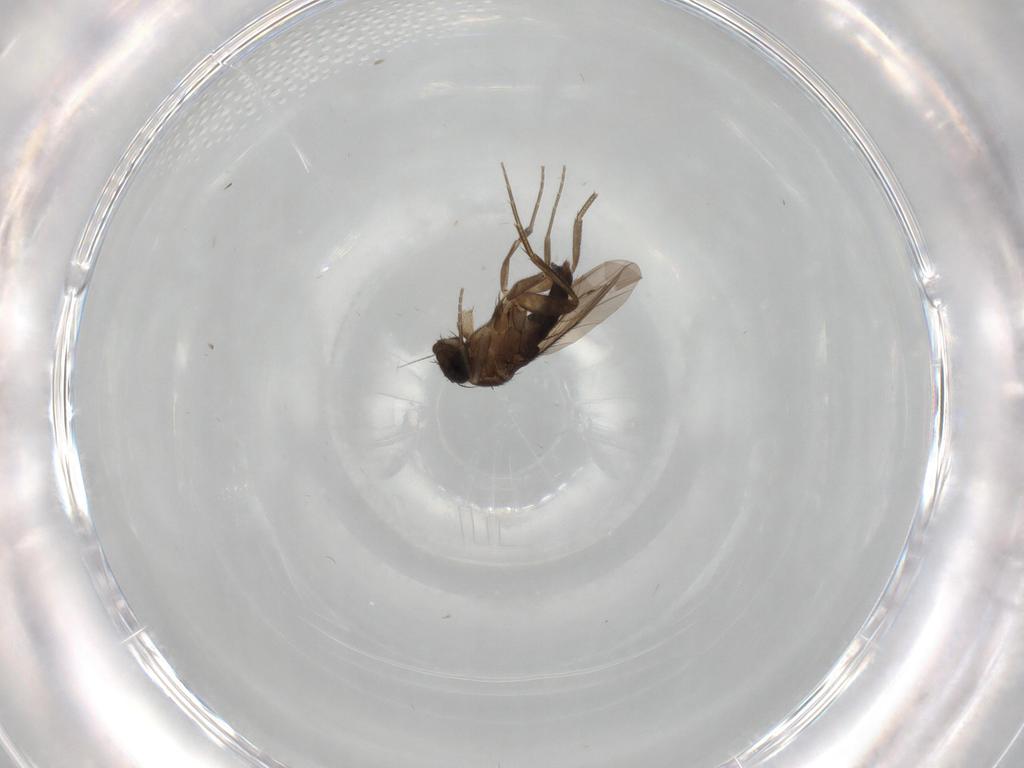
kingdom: Animalia
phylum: Arthropoda
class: Insecta
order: Diptera
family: Phoridae
